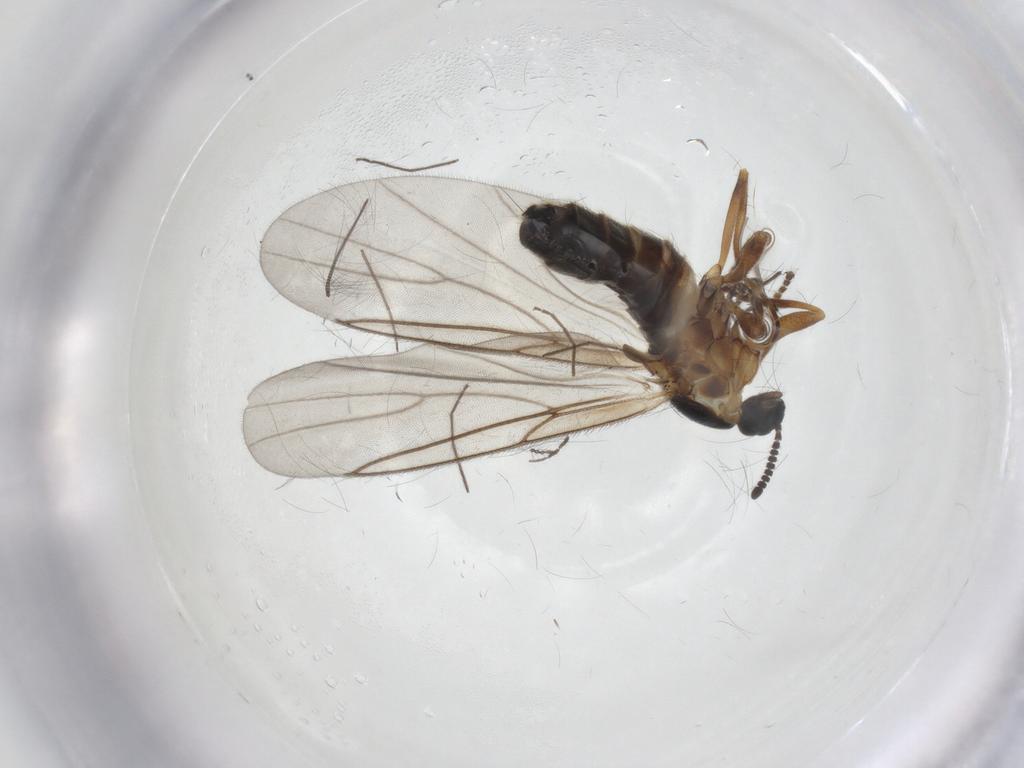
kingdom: Animalia
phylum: Arthropoda
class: Insecta
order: Diptera
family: Scatopsidae
